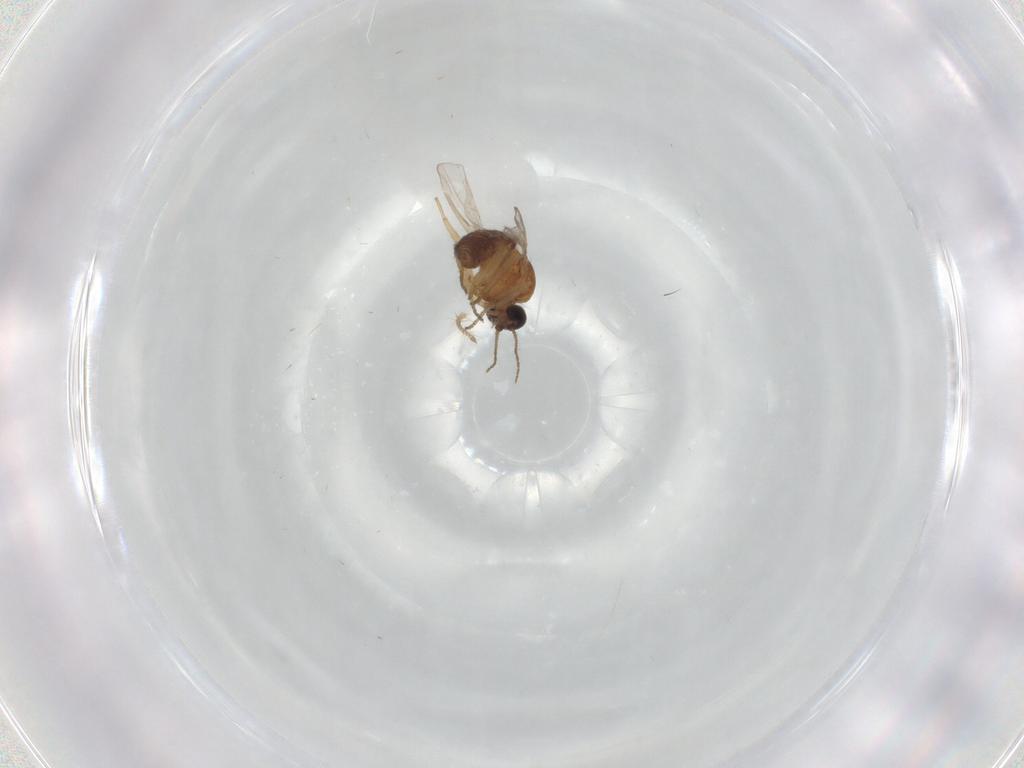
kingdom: Animalia
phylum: Arthropoda
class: Insecta
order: Diptera
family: Ceratopogonidae
